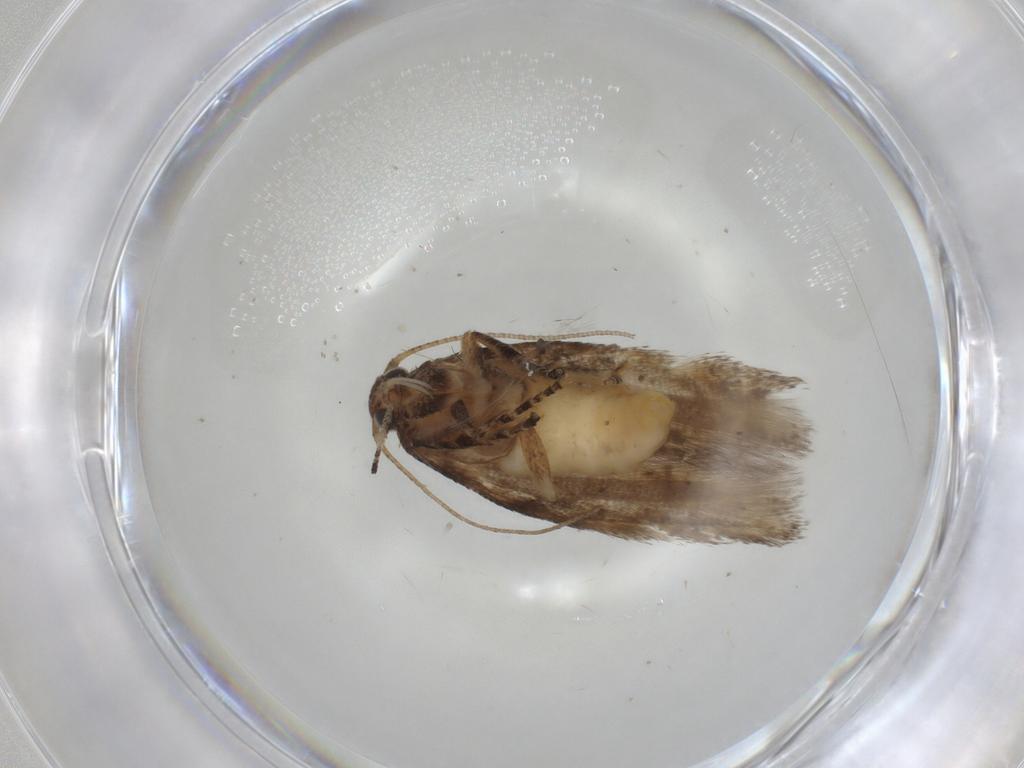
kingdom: Animalia
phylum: Arthropoda
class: Insecta
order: Lepidoptera
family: Gelechiidae
